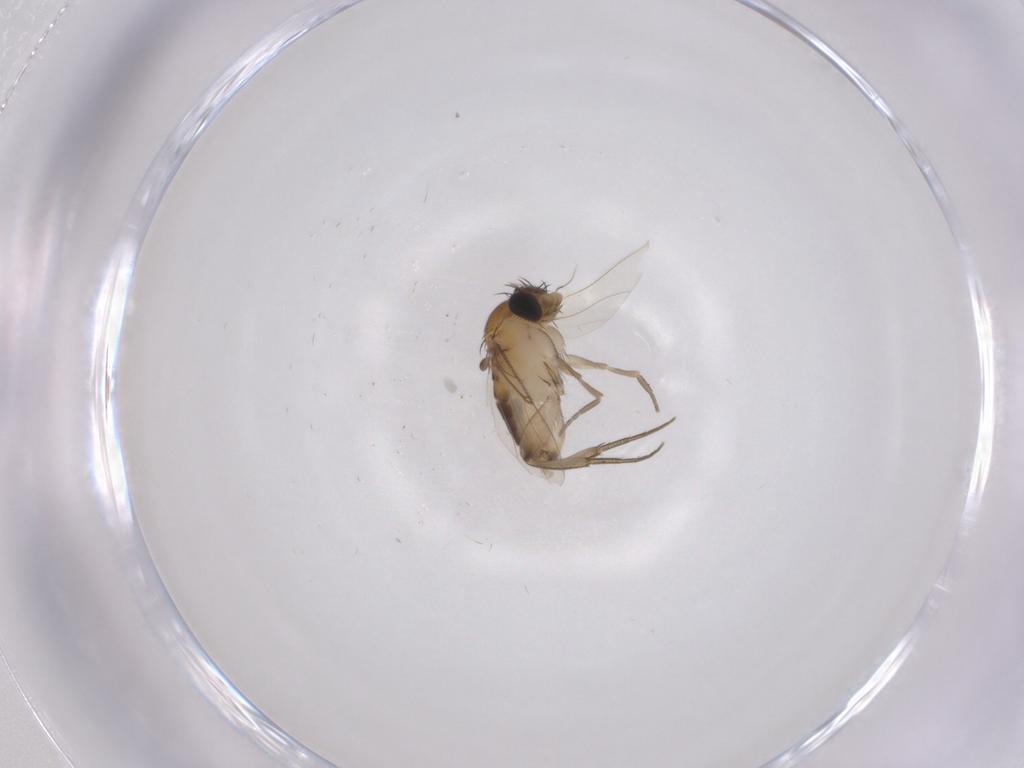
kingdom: Animalia
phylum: Arthropoda
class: Insecta
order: Diptera
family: Phoridae
